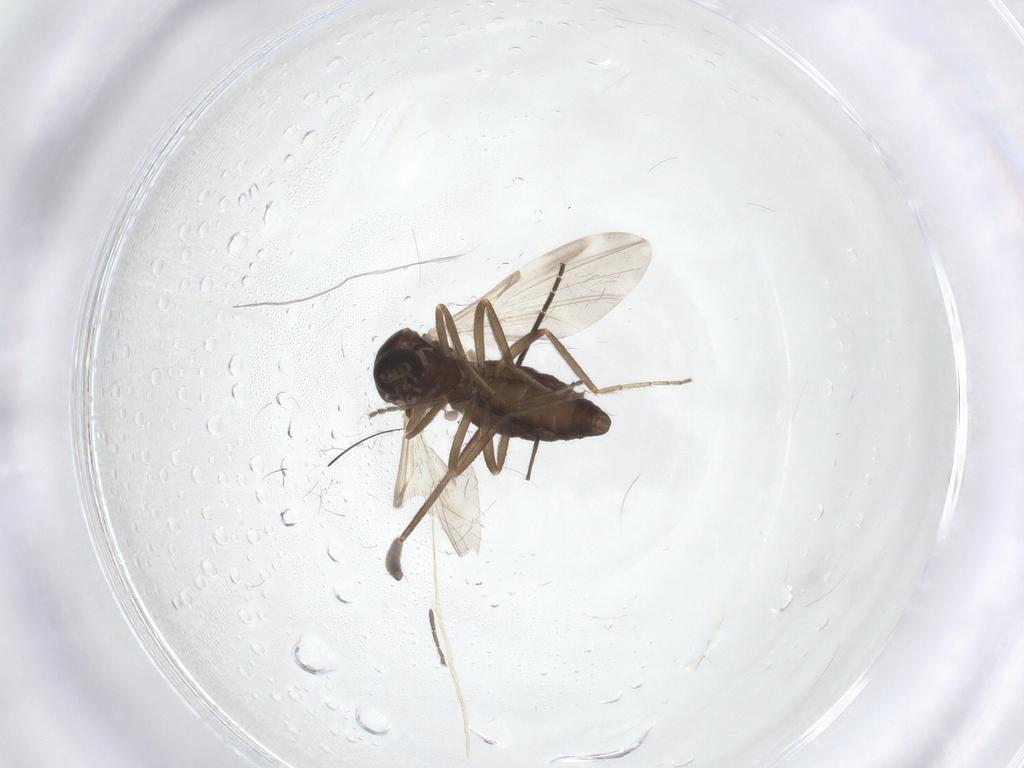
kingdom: Animalia
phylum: Arthropoda
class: Insecta
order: Diptera
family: Ceratopogonidae
